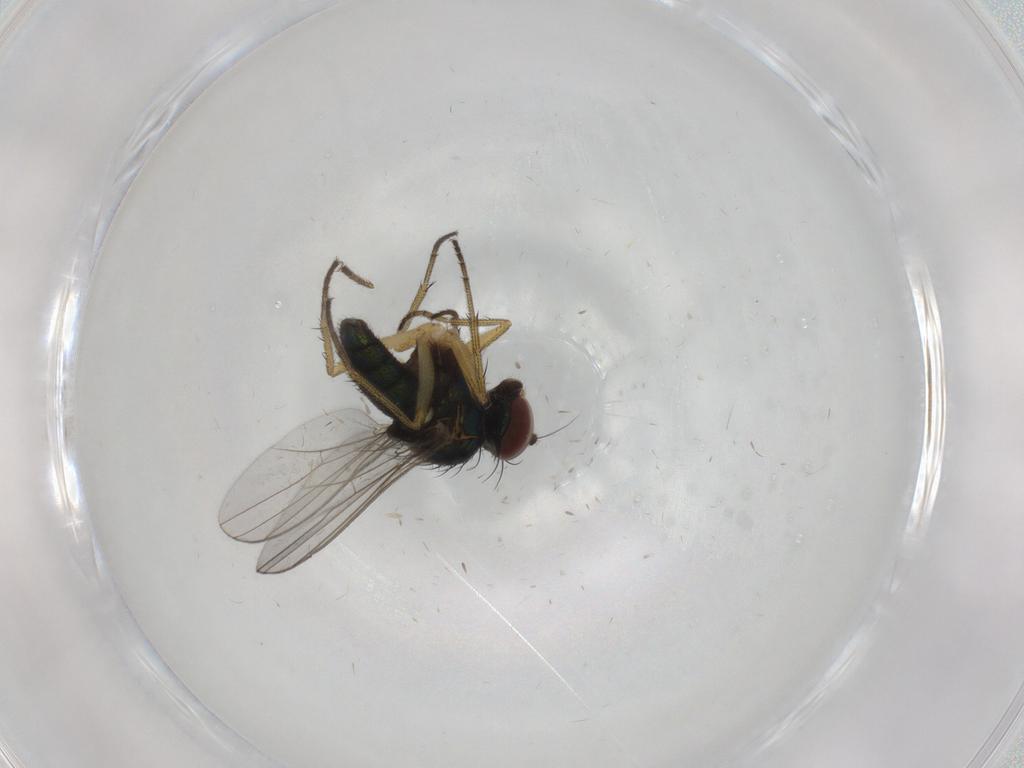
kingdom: Animalia
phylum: Arthropoda
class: Insecta
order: Diptera
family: Dolichopodidae
